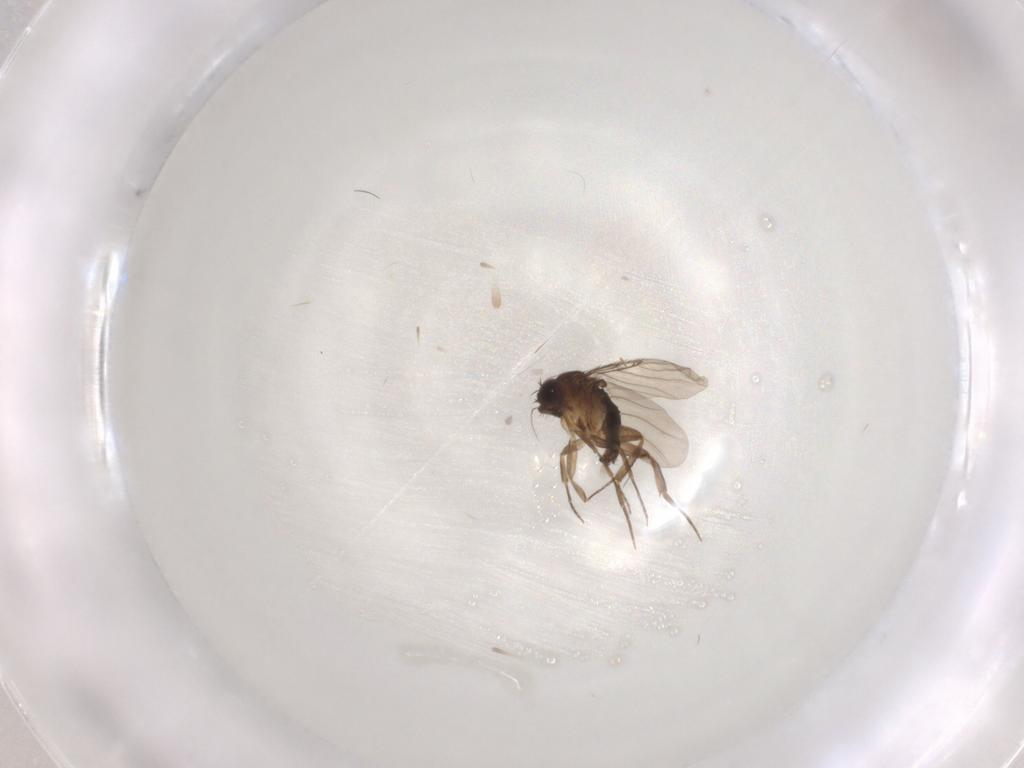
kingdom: Animalia
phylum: Arthropoda
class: Insecta
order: Diptera
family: Phoridae
